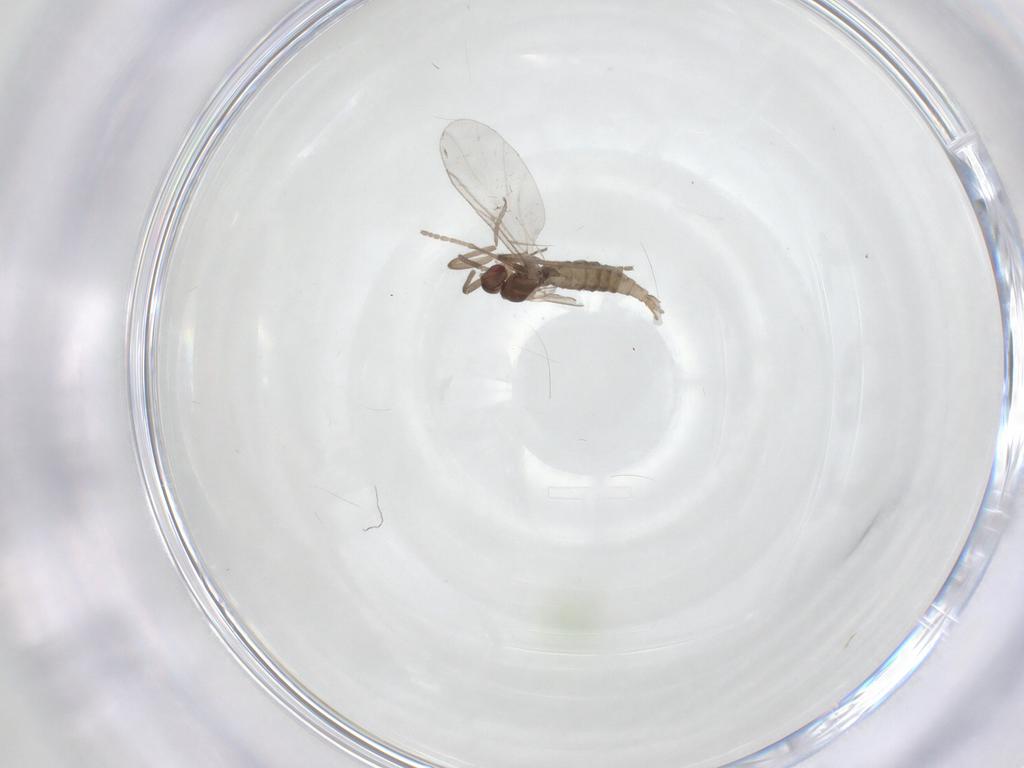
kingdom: Animalia
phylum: Arthropoda
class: Insecta
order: Diptera
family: Cecidomyiidae
